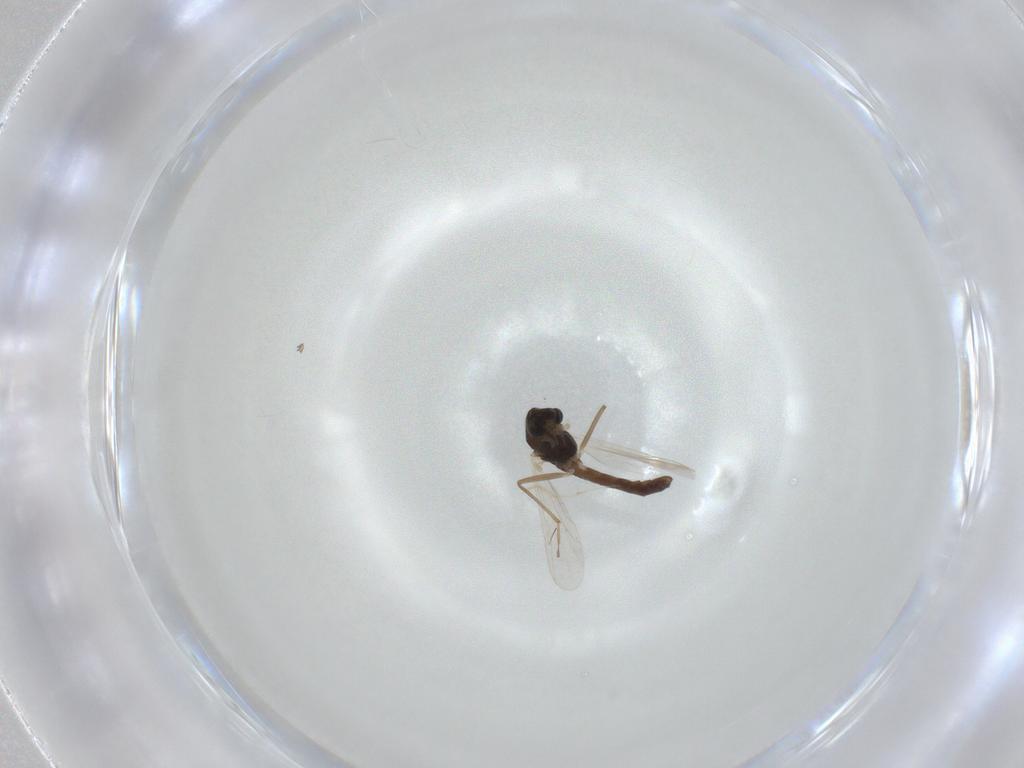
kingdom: Animalia
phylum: Arthropoda
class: Insecta
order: Diptera
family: Chironomidae
